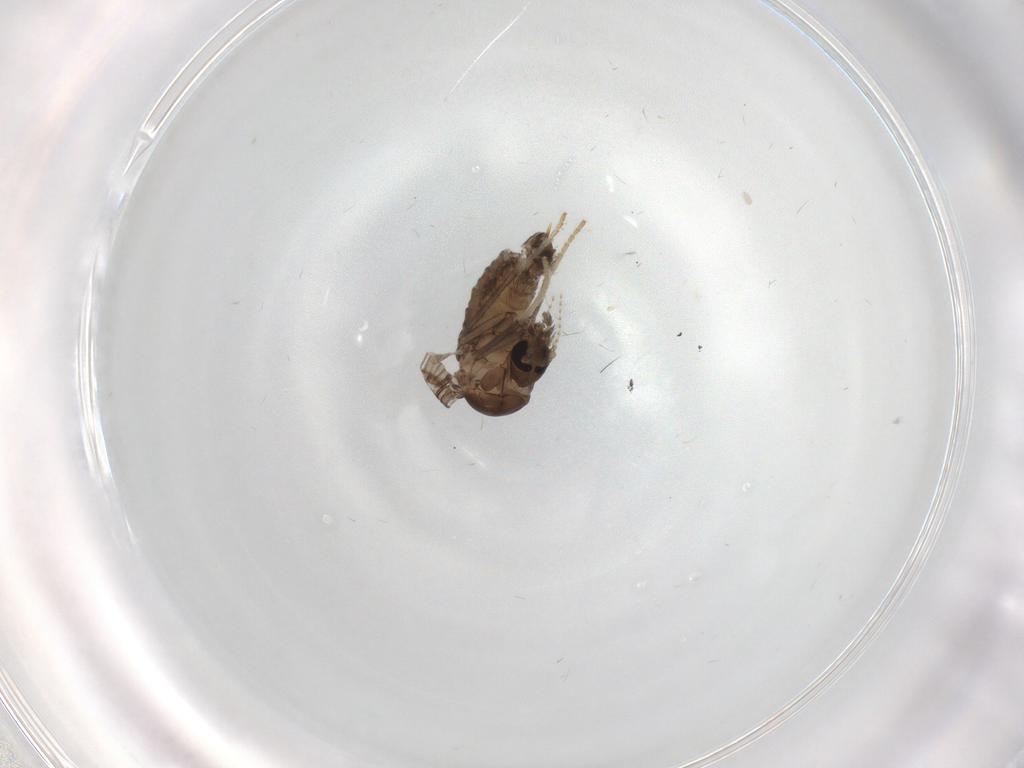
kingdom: Animalia
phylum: Arthropoda
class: Insecta
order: Diptera
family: Psychodidae
